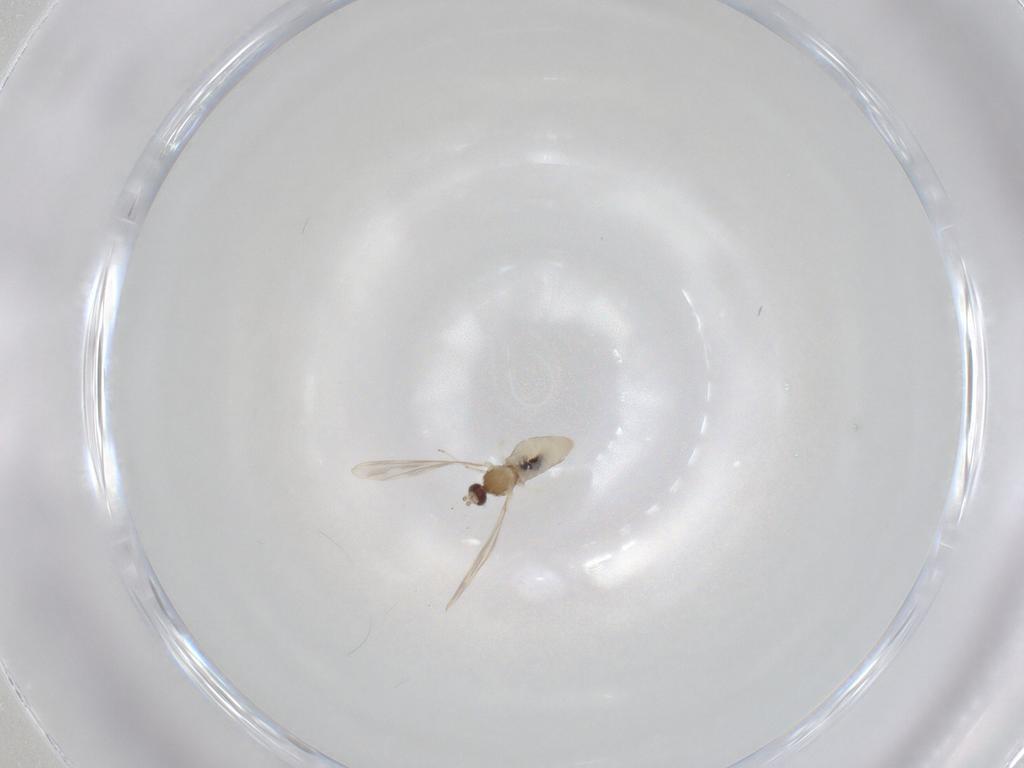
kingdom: Animalia
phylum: Arthropoda
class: Insecta
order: Diptera
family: Cecidomyiidae
